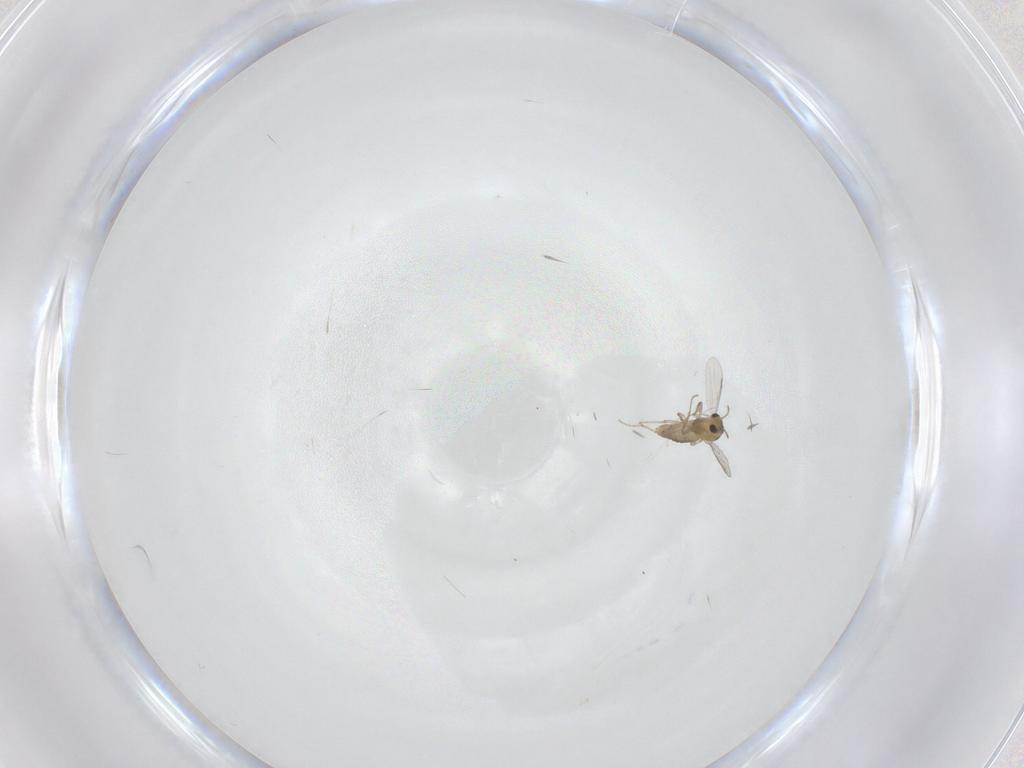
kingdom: Animalia
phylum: Arthropoda
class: Insecta
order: Diptera
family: Chironomidae
